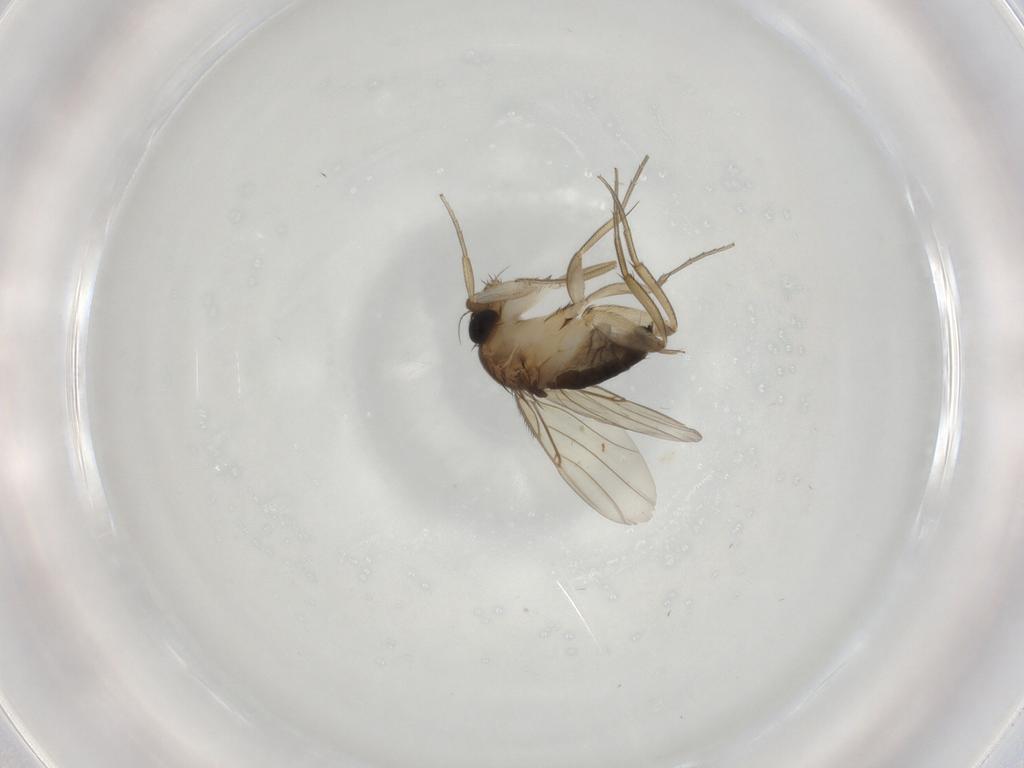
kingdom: Animalia
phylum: Arthropoda
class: Insecta
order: Diptera
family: Phoridae
